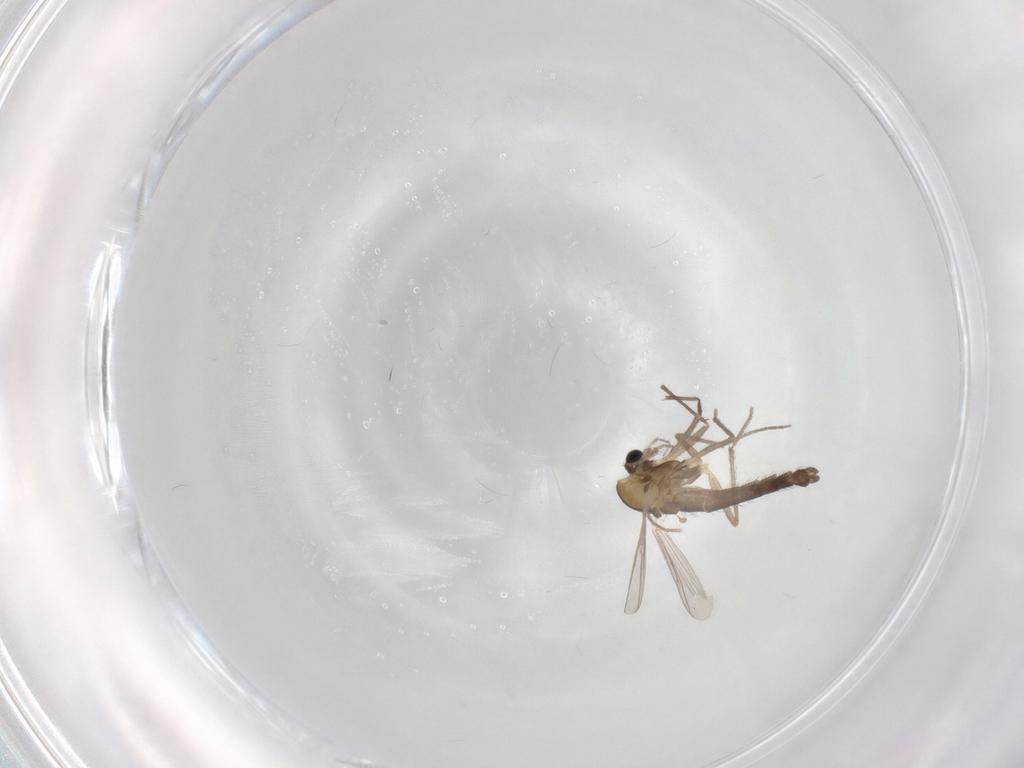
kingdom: Animalia
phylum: Arthropoda
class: Insecta
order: Diptera
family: Chironomidae
